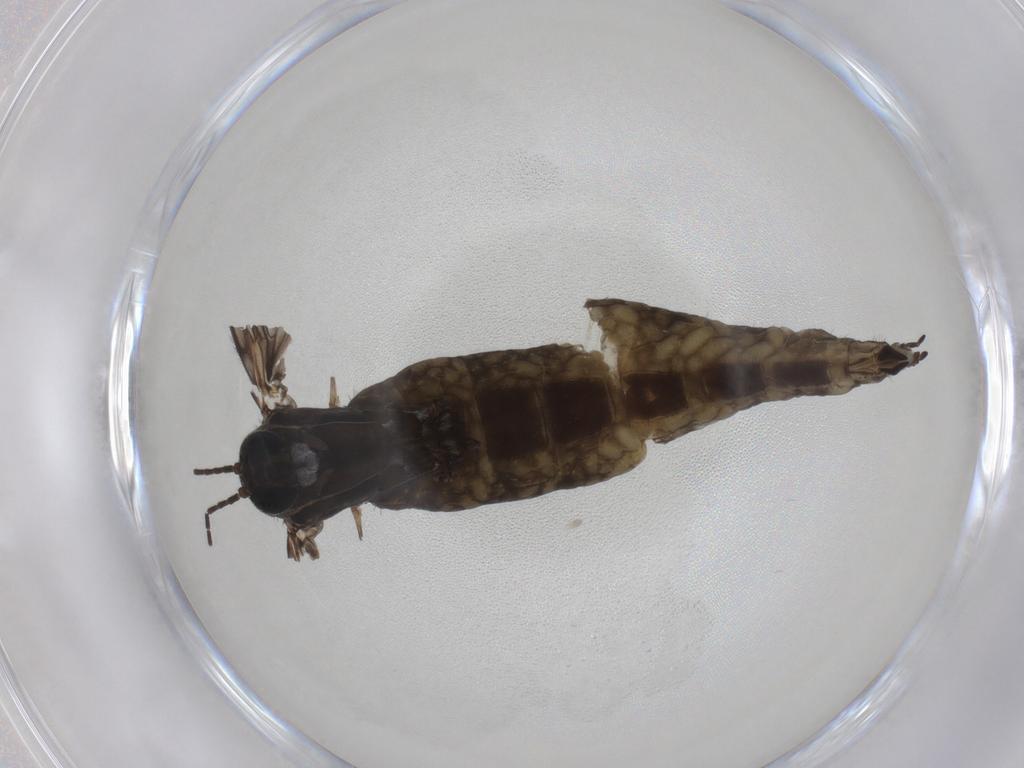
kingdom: Animalia
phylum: Arthropoda
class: Insecta
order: Diptera
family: Sciaridae
